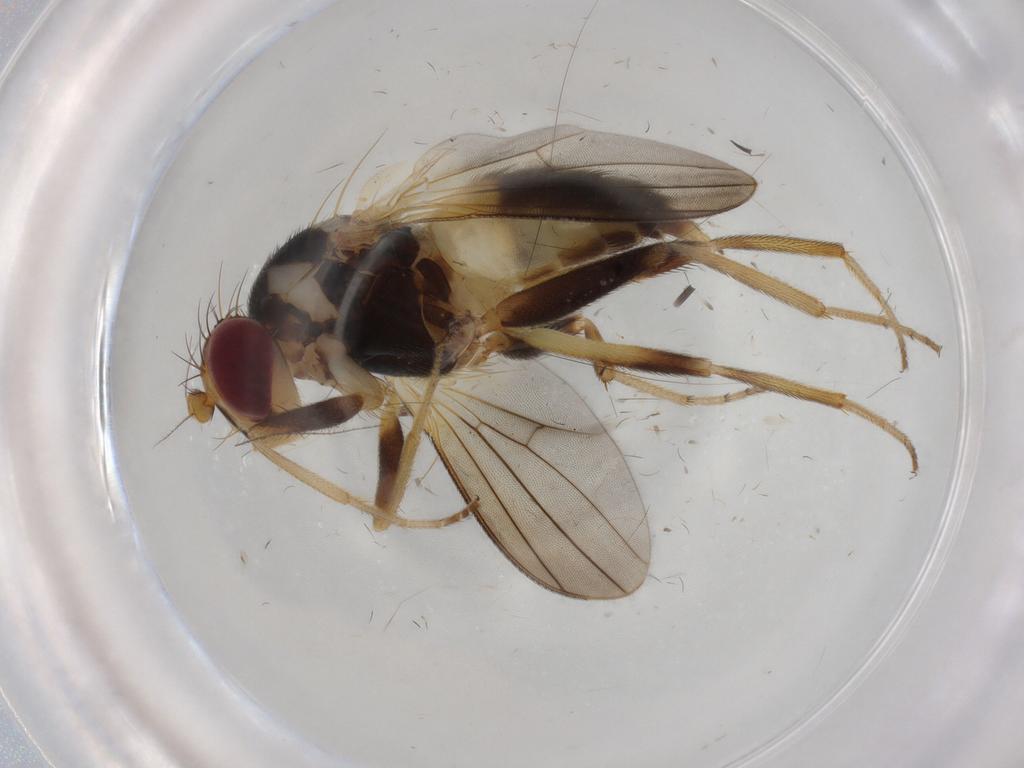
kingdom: Animalia
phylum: Arthropoda
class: Insecta
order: Diptera
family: Clusiidae
